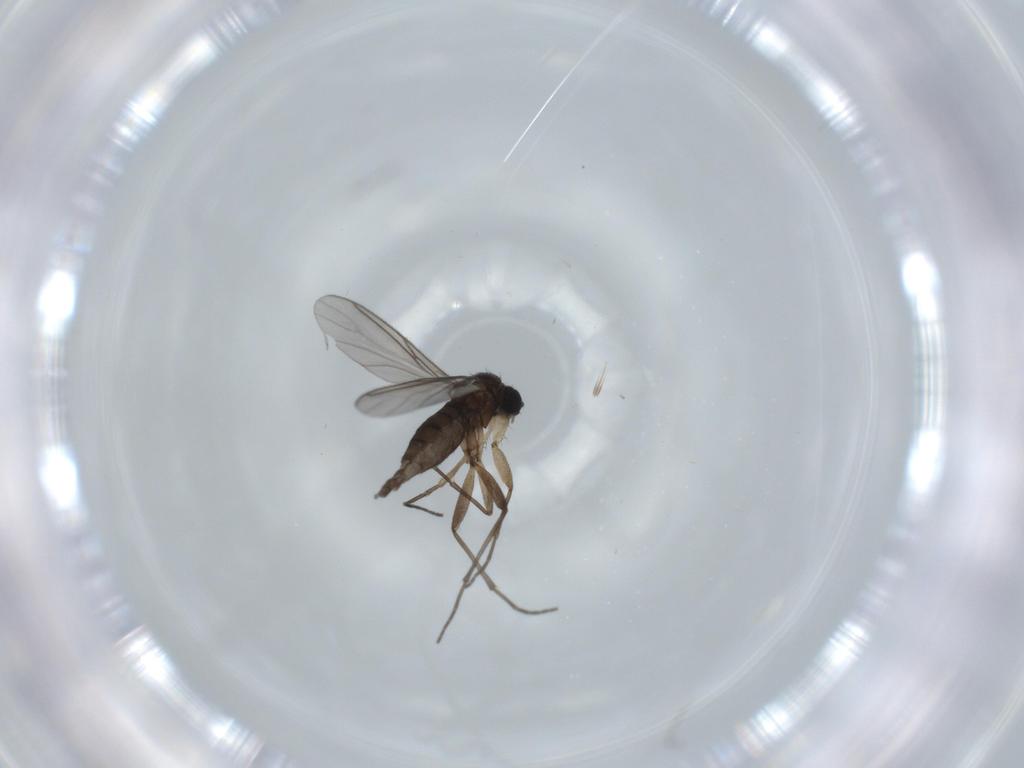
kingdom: Animalia
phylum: Arthropoda
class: Insecta
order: Diptera
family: Sciaridae
